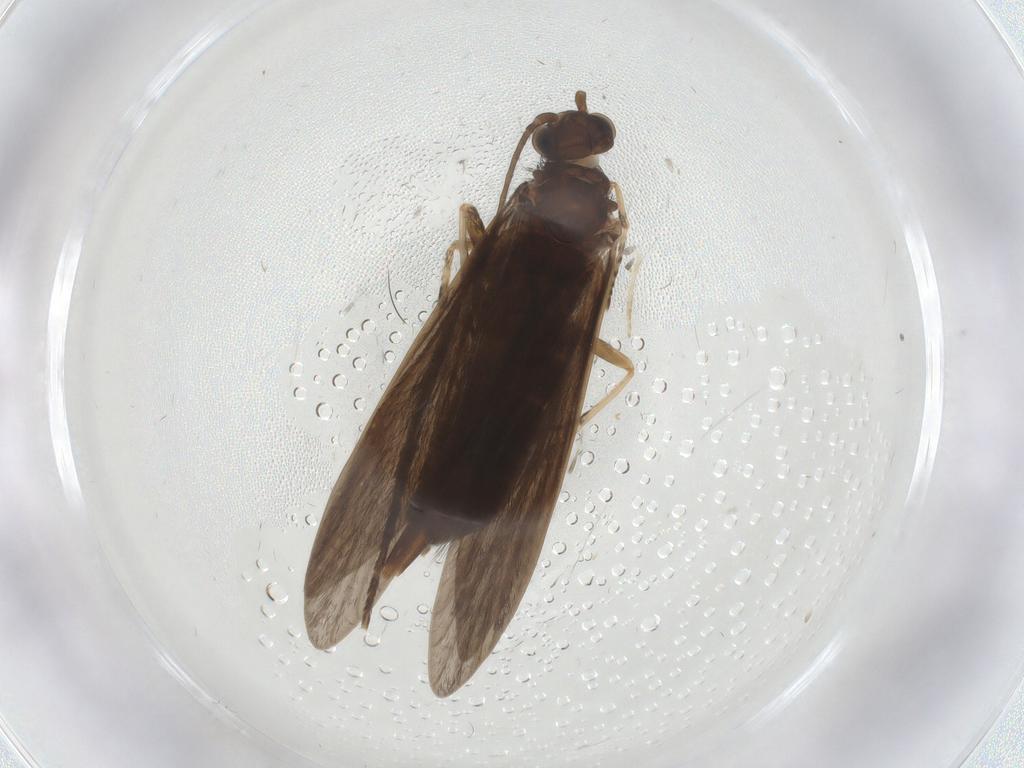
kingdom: Animalia
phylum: Arthropoda
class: Insecta
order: Trichoptera
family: Xiphocentronidae
